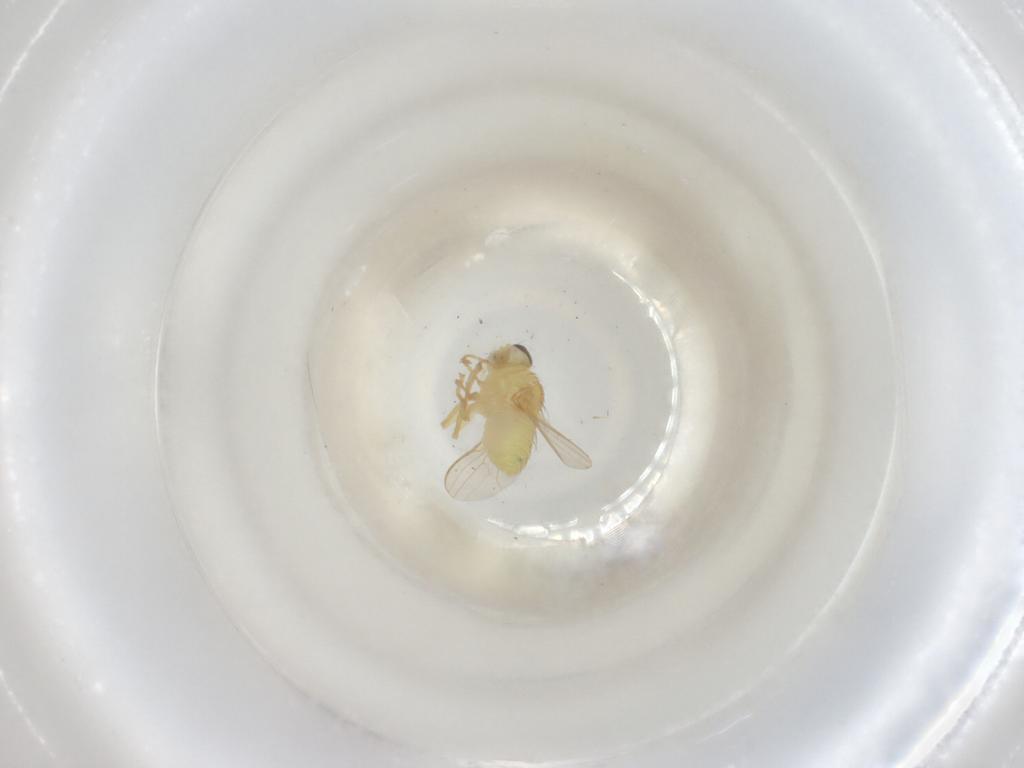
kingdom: Animalia
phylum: Arthropoda
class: Insecta
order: Diptera
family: Chyromyidae
